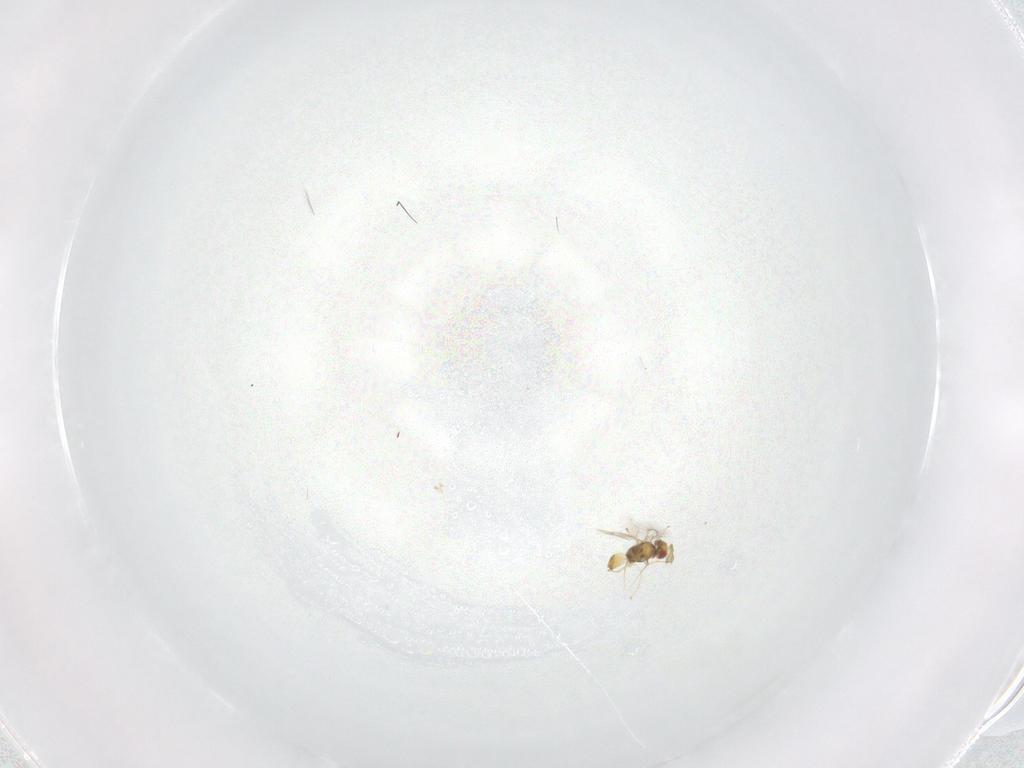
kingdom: Animalia
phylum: Arthropoda
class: Insecta
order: Hymenoptera
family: Eulophidae
